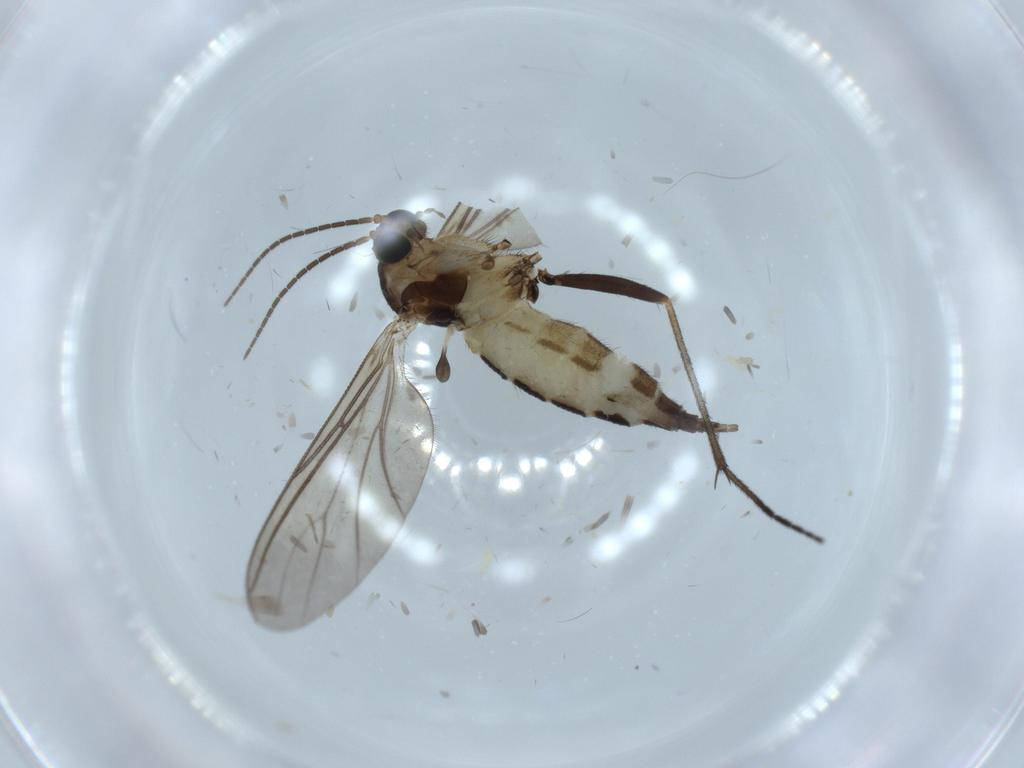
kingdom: Animalia
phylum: Arthropoda
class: Insecta
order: Diptera
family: Sciaridae
